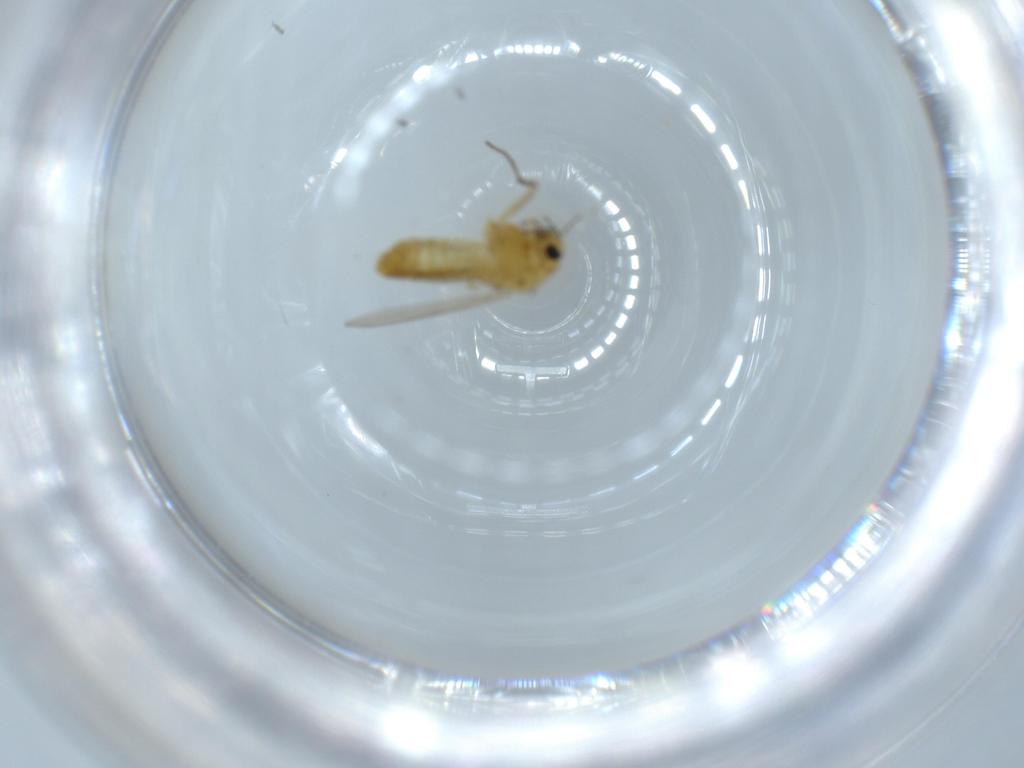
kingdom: Animalia
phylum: Arthropoda
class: Insecta
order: Diptera
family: Chironomidae
